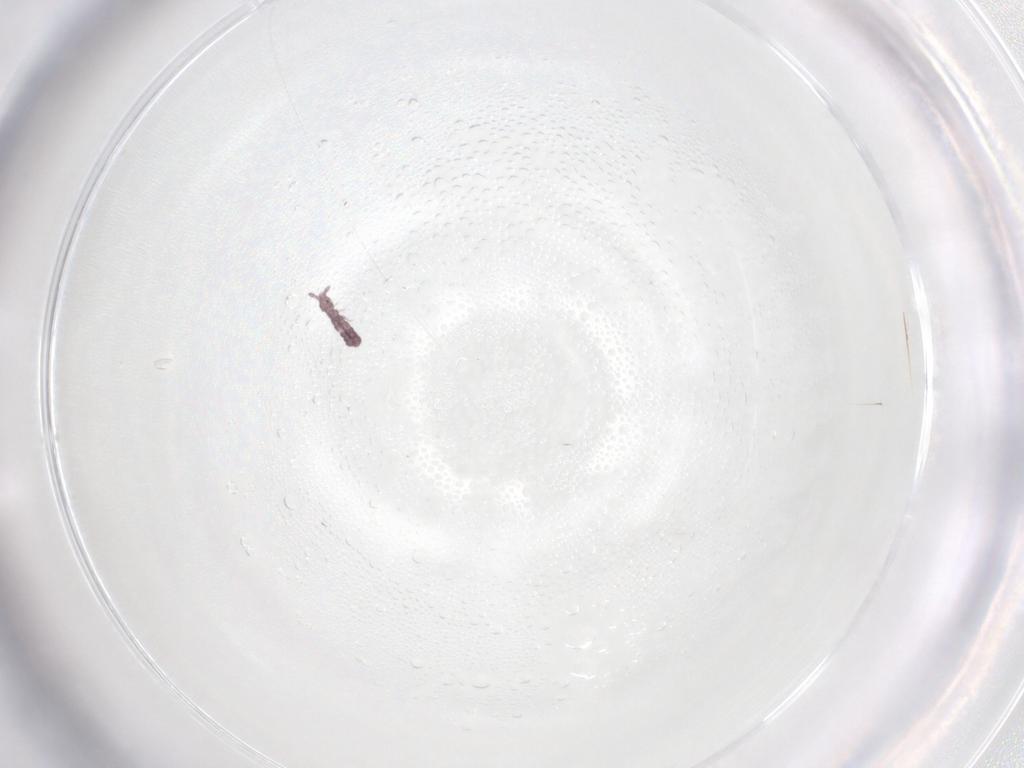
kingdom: Animalia
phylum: Arthropoda
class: Collembola
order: Poduromorpha
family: Hypogastruridae
